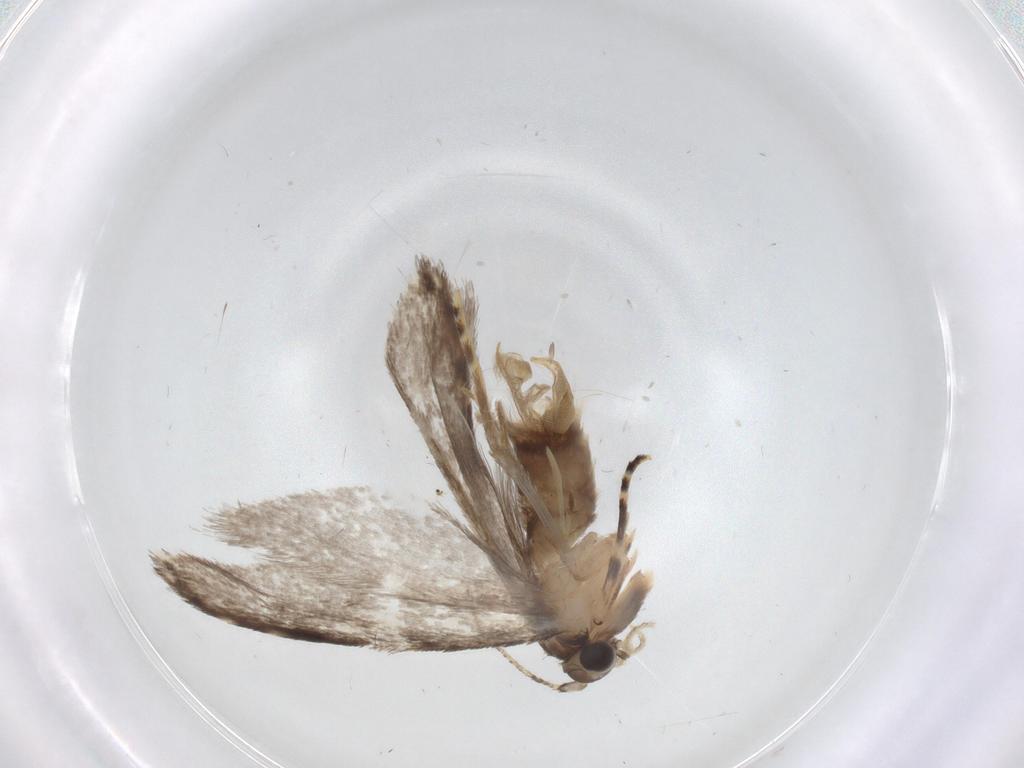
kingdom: Animalia
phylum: Arthropoda
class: Insecta
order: Lepidoptera
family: Tineidae
